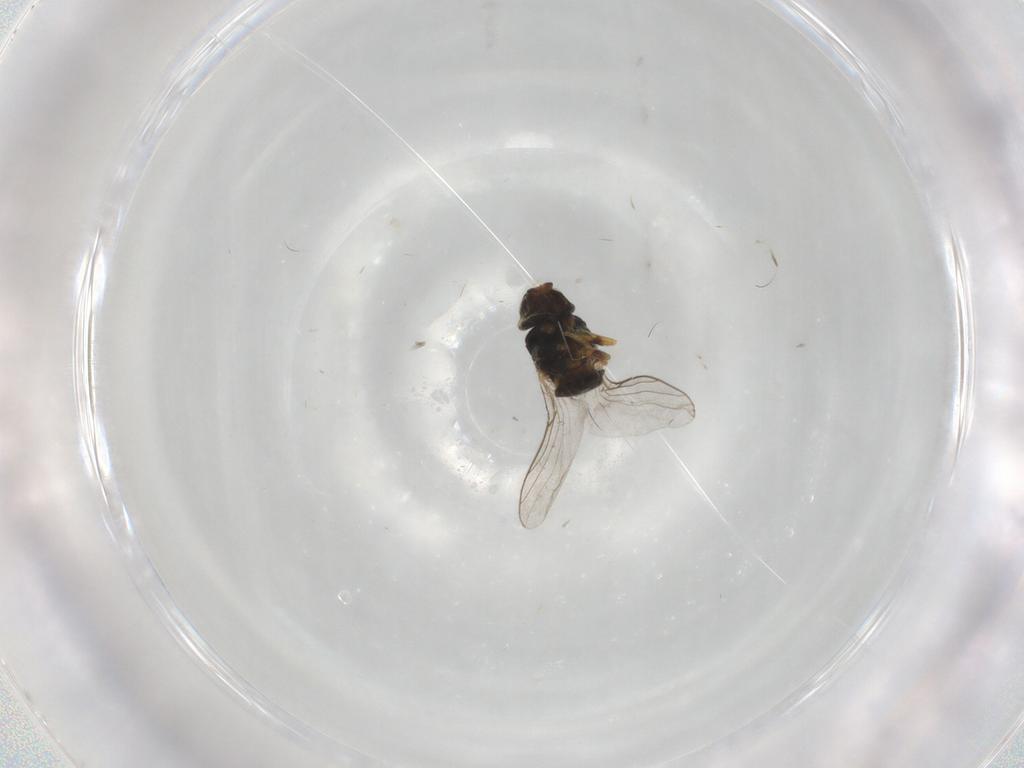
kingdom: Animalia
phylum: Arthropoda
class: Insecta
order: Diptera
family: Chloropidae
